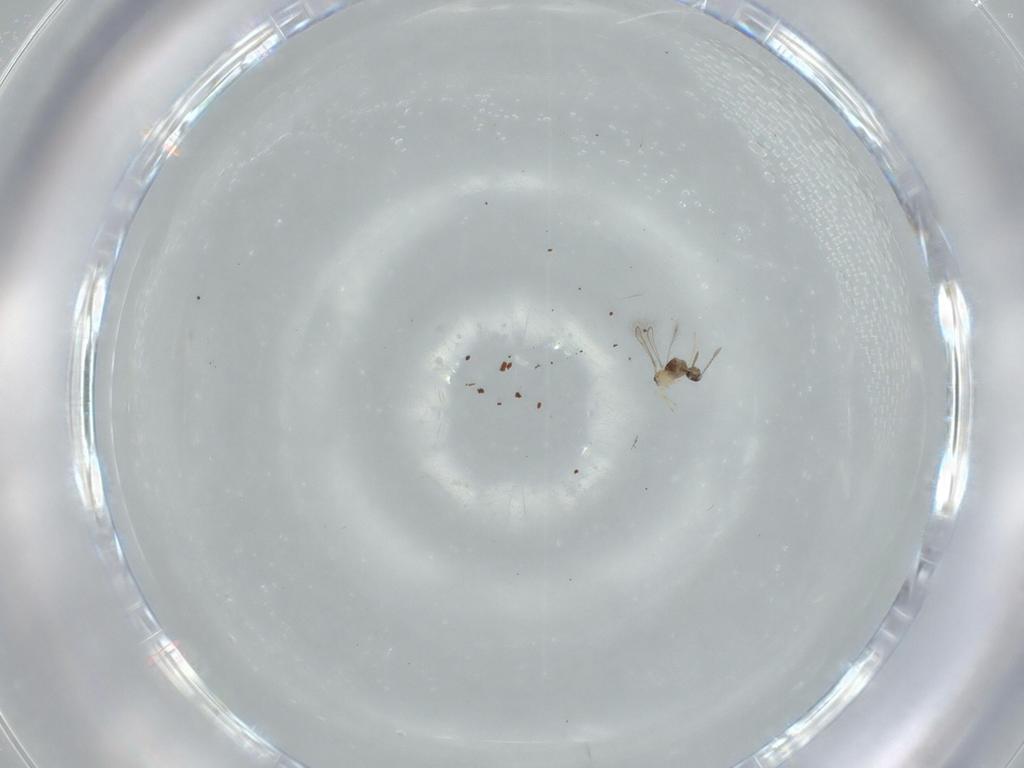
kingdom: Animalia
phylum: Arthropoda
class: Insecta
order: Hymenoptera
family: Mymaridae
